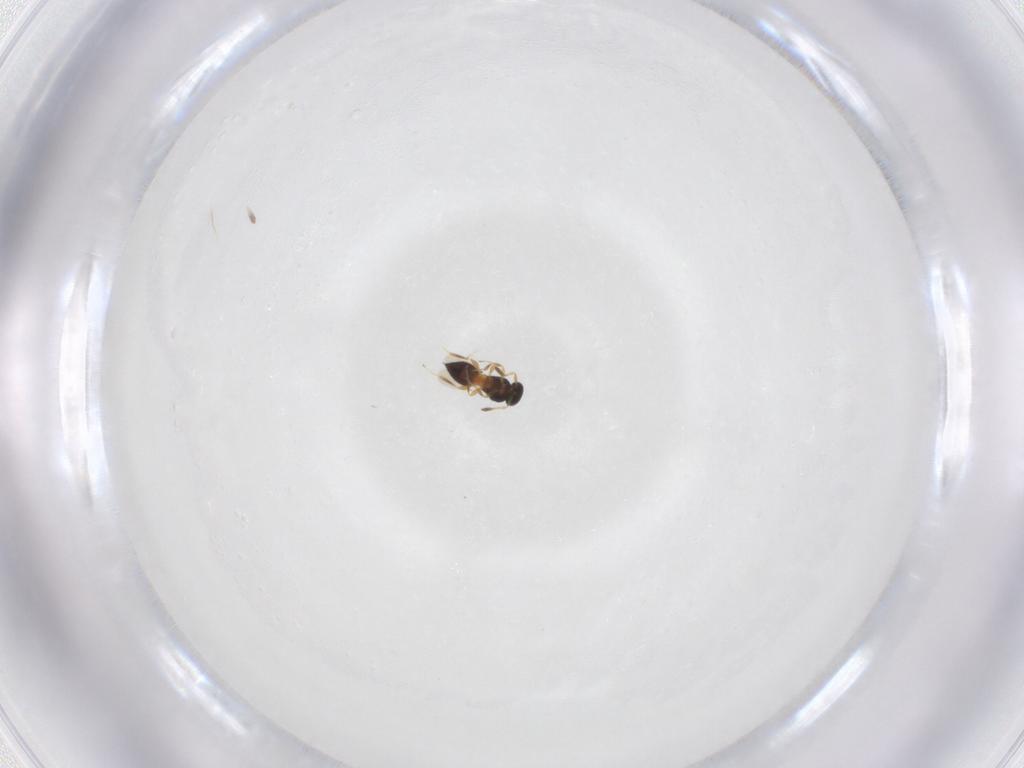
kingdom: Animalia
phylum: Arthropoda
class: Insecta
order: Hymenoptera
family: Platygastridae
